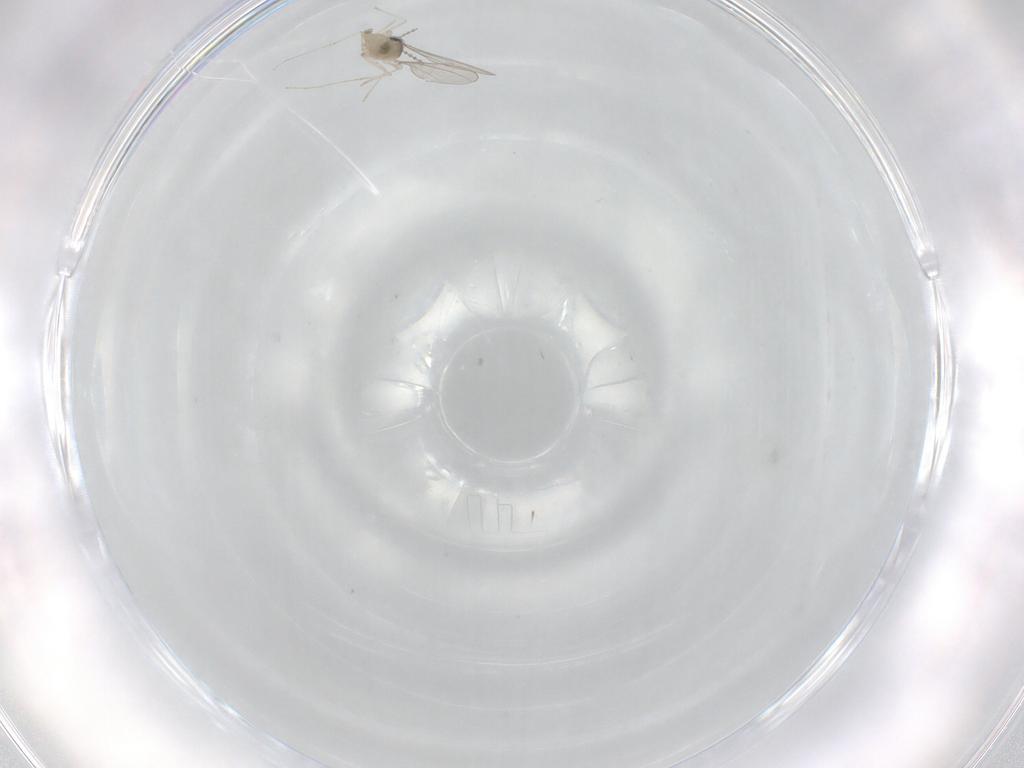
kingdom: Animalia
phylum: Arthropoda
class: Insecta
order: Diptera
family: Cecidomyiidae
